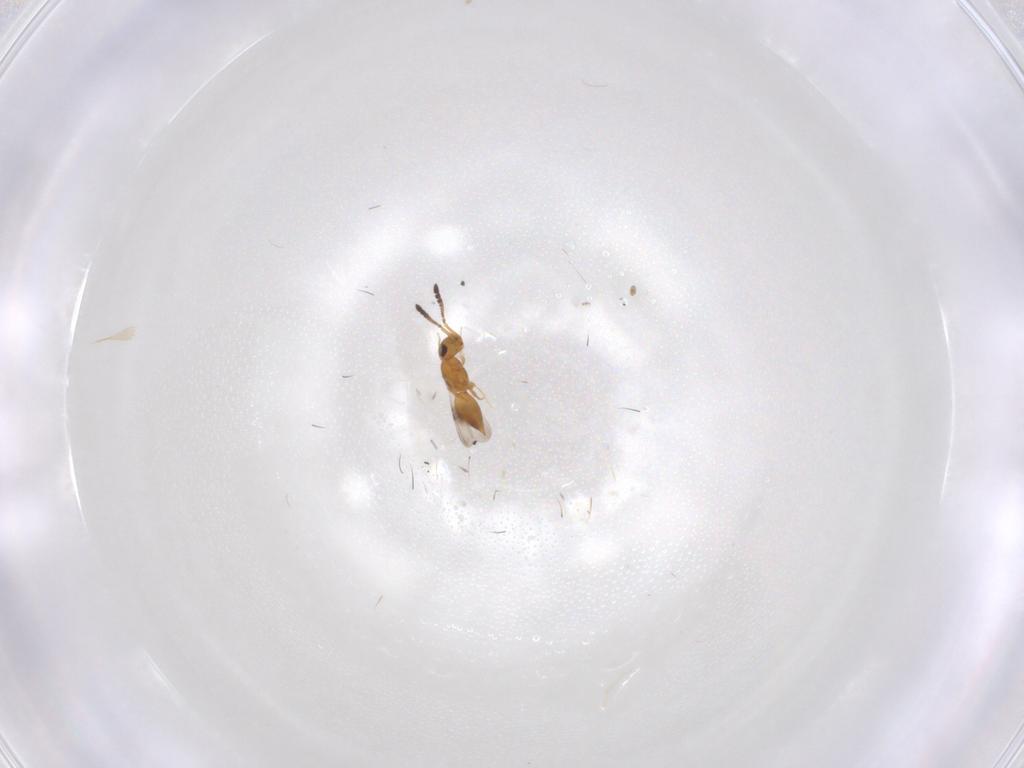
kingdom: Animalia
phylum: Arthropoda
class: Insecta
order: Hymenoptera
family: Ceraphronidae
